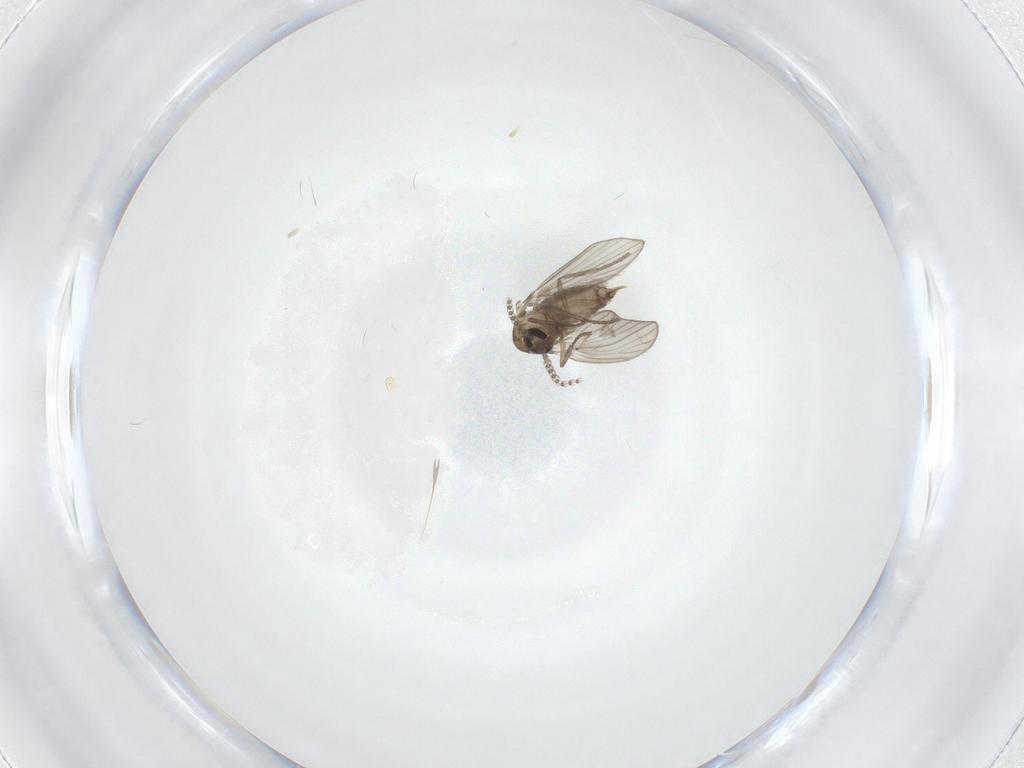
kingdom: Animalia
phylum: Arthropoda
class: Insecta
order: Diptera
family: Psychodidae
